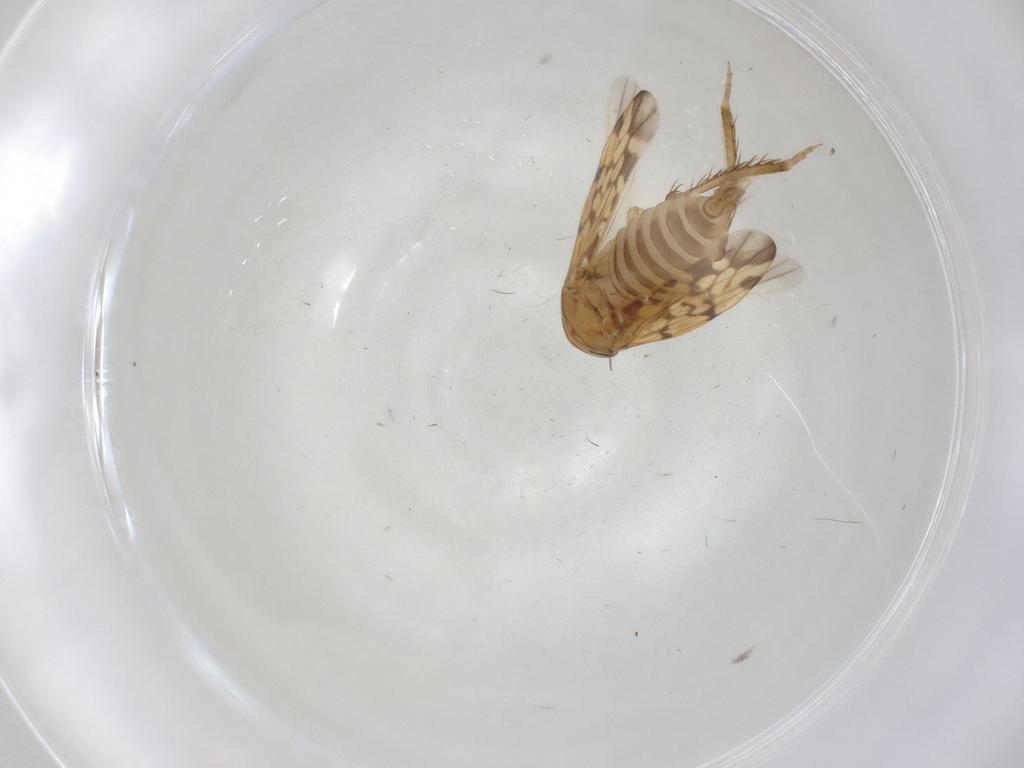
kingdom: Animalia
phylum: Arthropoda
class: Insecta
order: Hemiptera
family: Cicadellidae
